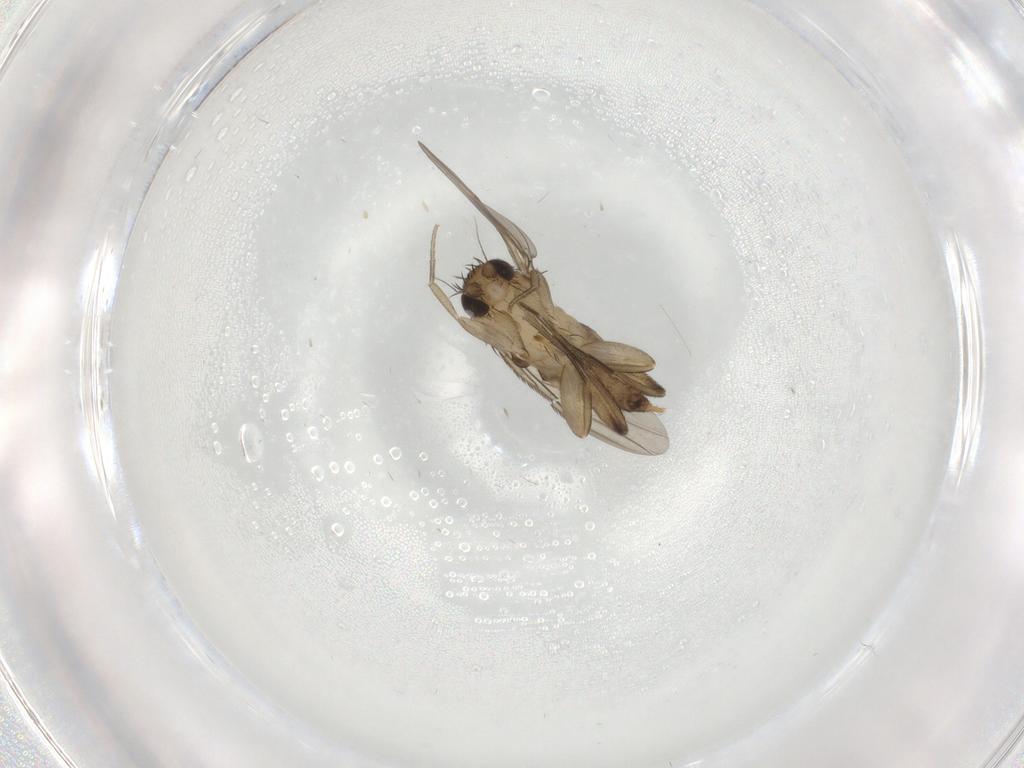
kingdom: Animalia
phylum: Arthropoda
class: Insecta
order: Diptera
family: Phoridae
